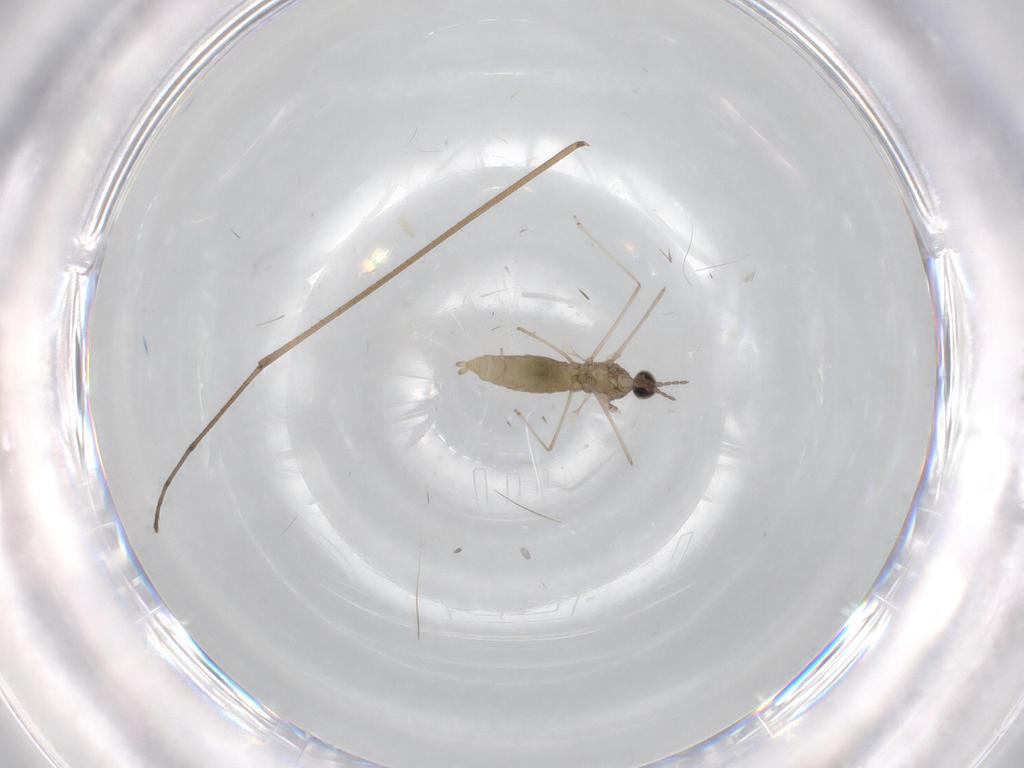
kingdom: Animalia
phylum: Arthropoda
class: Insecta
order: Diptera
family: Cecidomyiidae
